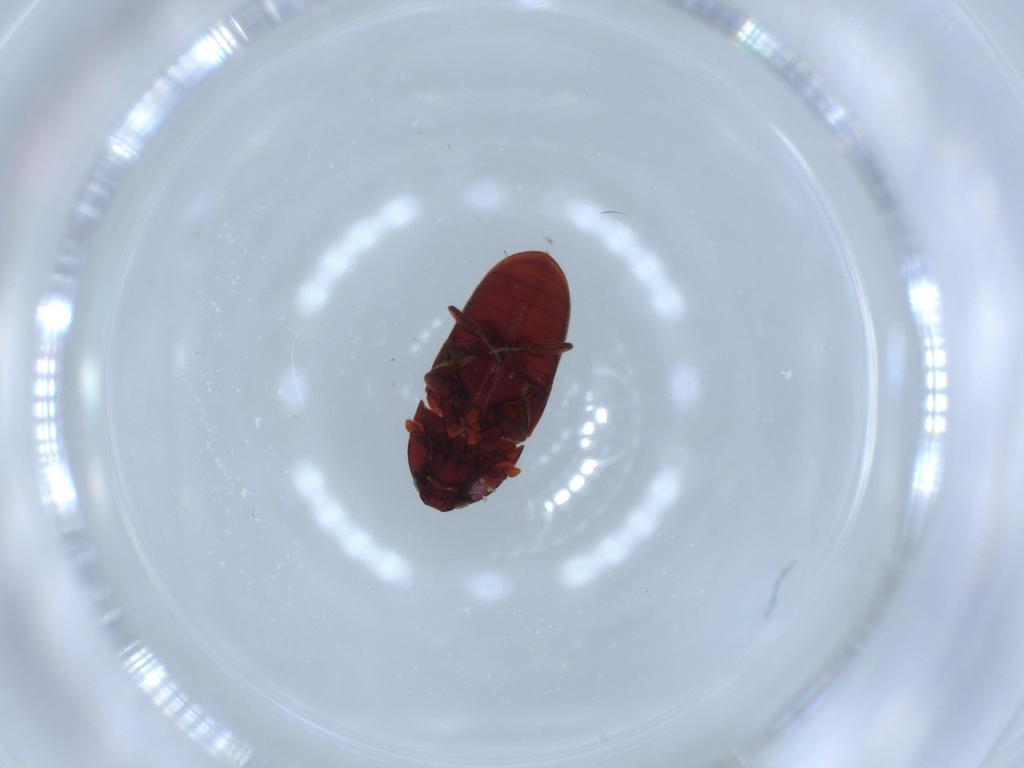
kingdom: Animalia
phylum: Arthropoda
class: Insecta
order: Coleoptera
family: Throscidae
